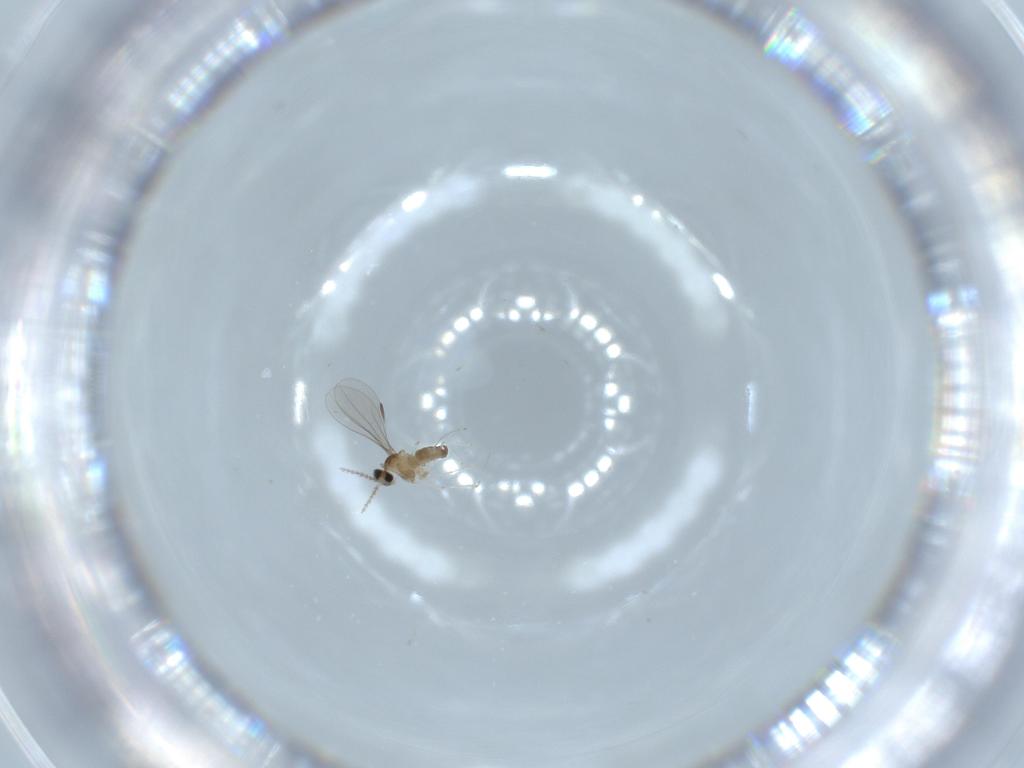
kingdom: Animalia
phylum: Arthropoda
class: Insecta
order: Diptera
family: Cecidomyiidae
